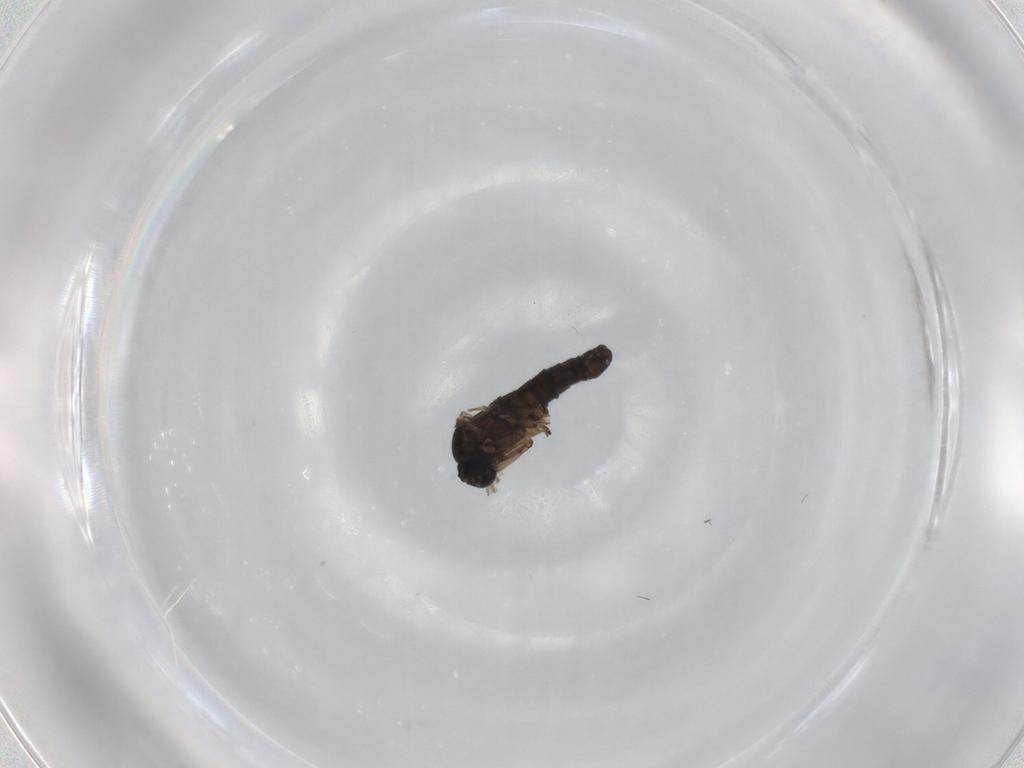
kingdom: Animalia
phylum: Arthropoda
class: Insecta
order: Diptera
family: Sciaridae
